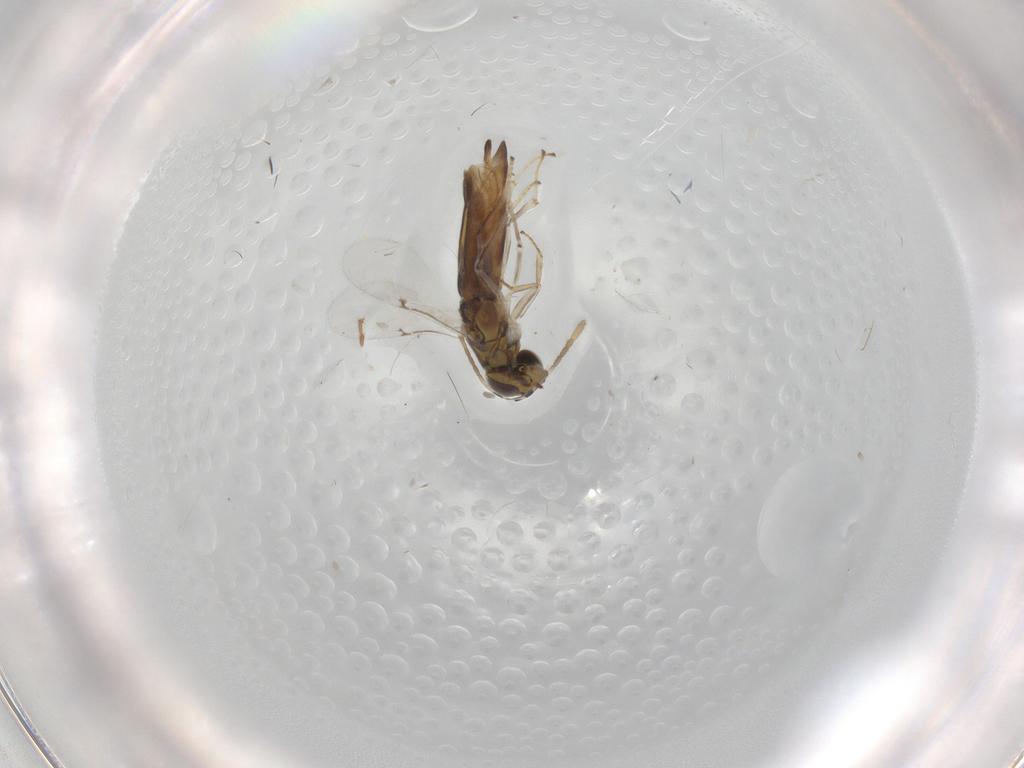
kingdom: Animalia
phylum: Arthropoda
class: Insecta
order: Hymenoptera
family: Encyrtidae
